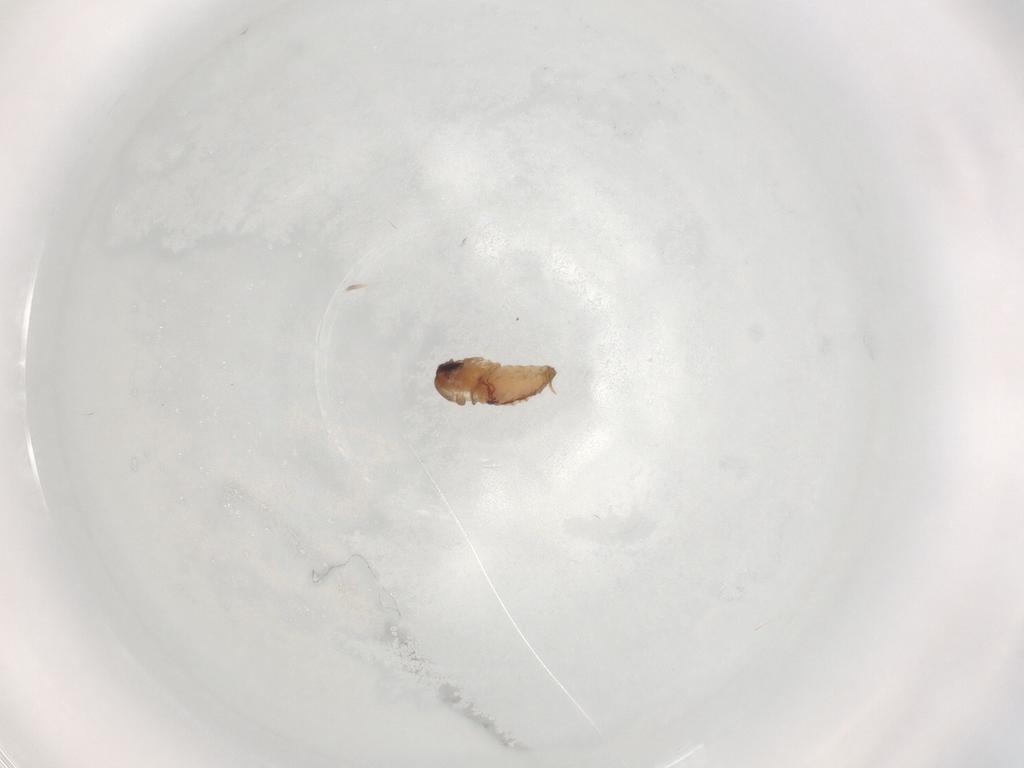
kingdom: Animalia
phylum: Arthropoda
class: Insecta
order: Diptera
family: Psychodidae
